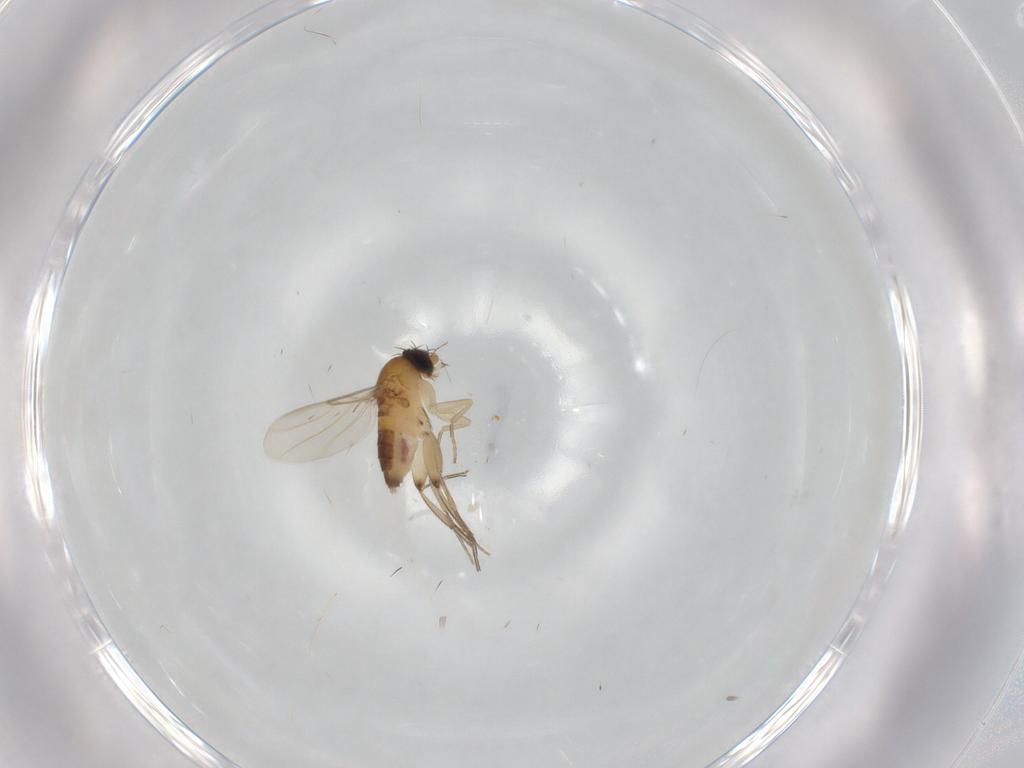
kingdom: Animalia
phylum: Arthropoda
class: Insecta
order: Diptera
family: Phoridae
